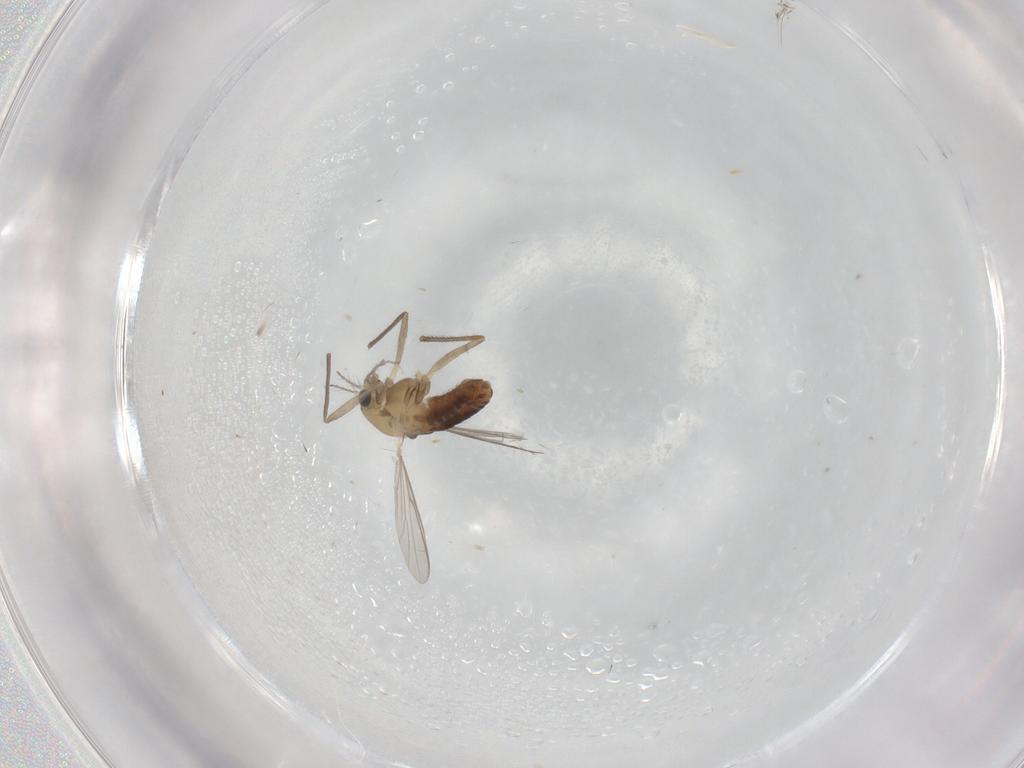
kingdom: Animalia
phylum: Arthropoda
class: Insecta
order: Diptera
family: Chironomidae
